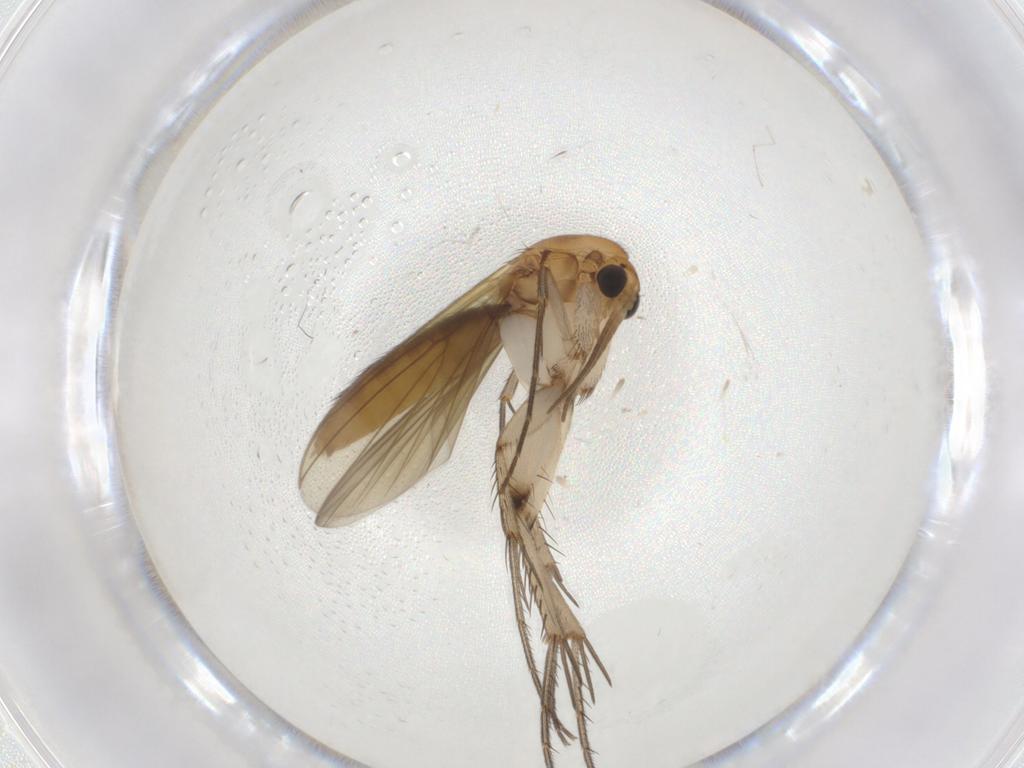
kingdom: Animalia
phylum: Arthropoda
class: Insecta
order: Diptera
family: Mycetophilidae
